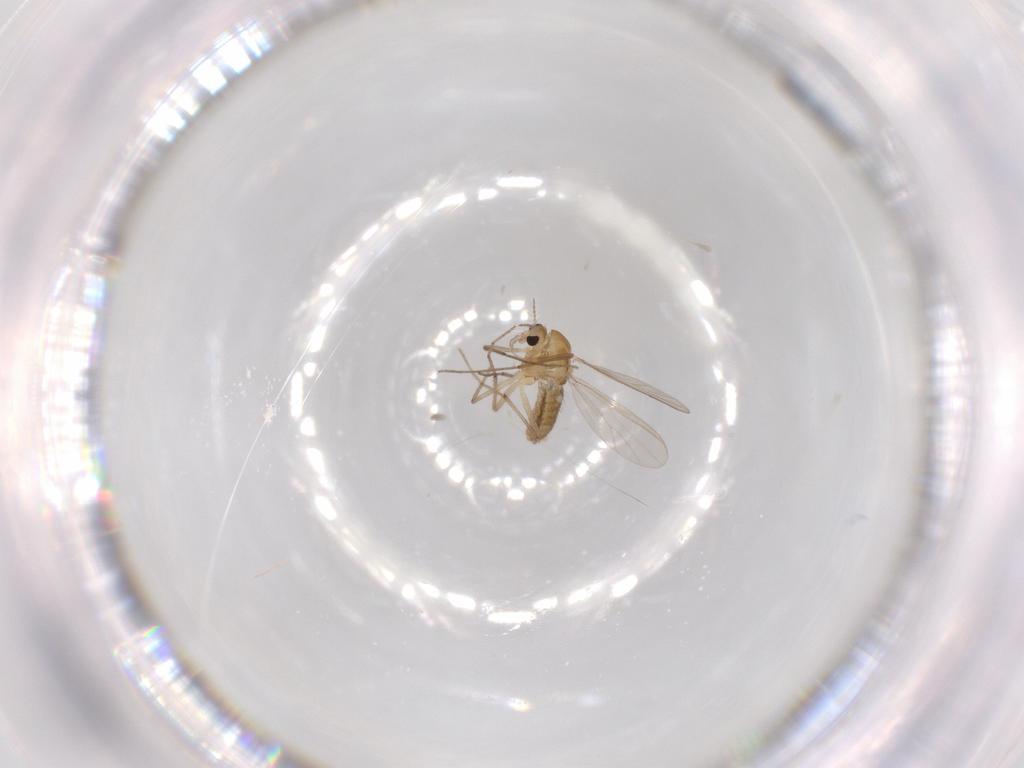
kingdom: Animalia
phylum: Arthropoda
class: Insecta
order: Diptera
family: Chironomidae
